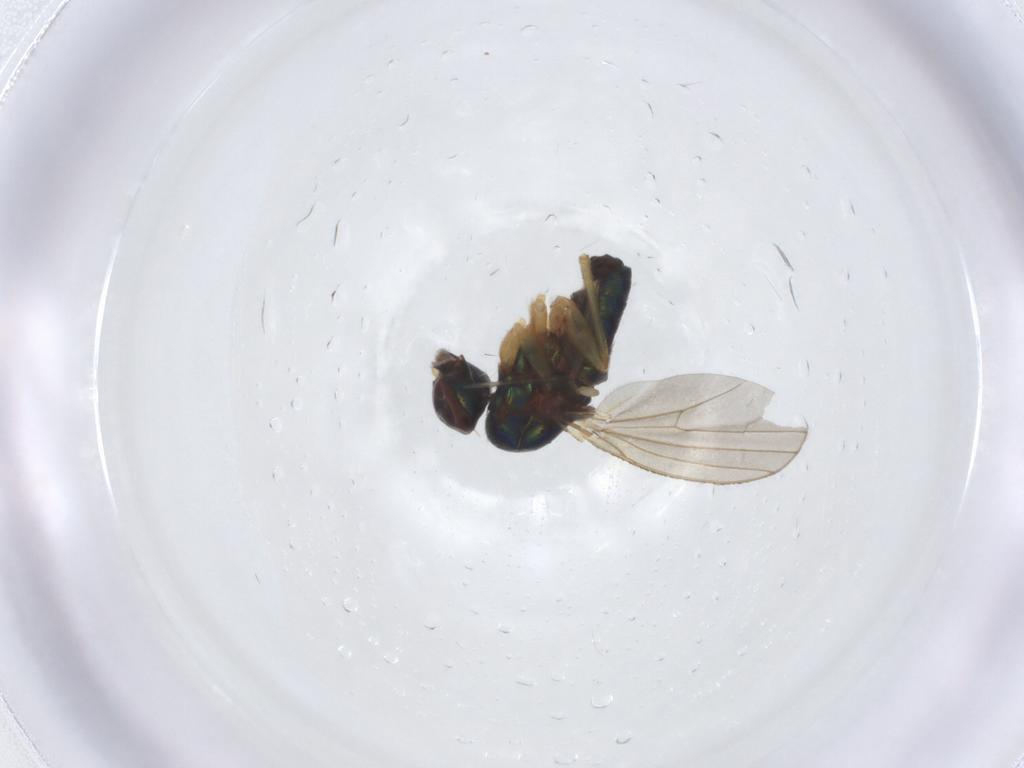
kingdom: Animalia
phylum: Arthropoda
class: Insecta
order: Diptera
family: Dolichopodidae
